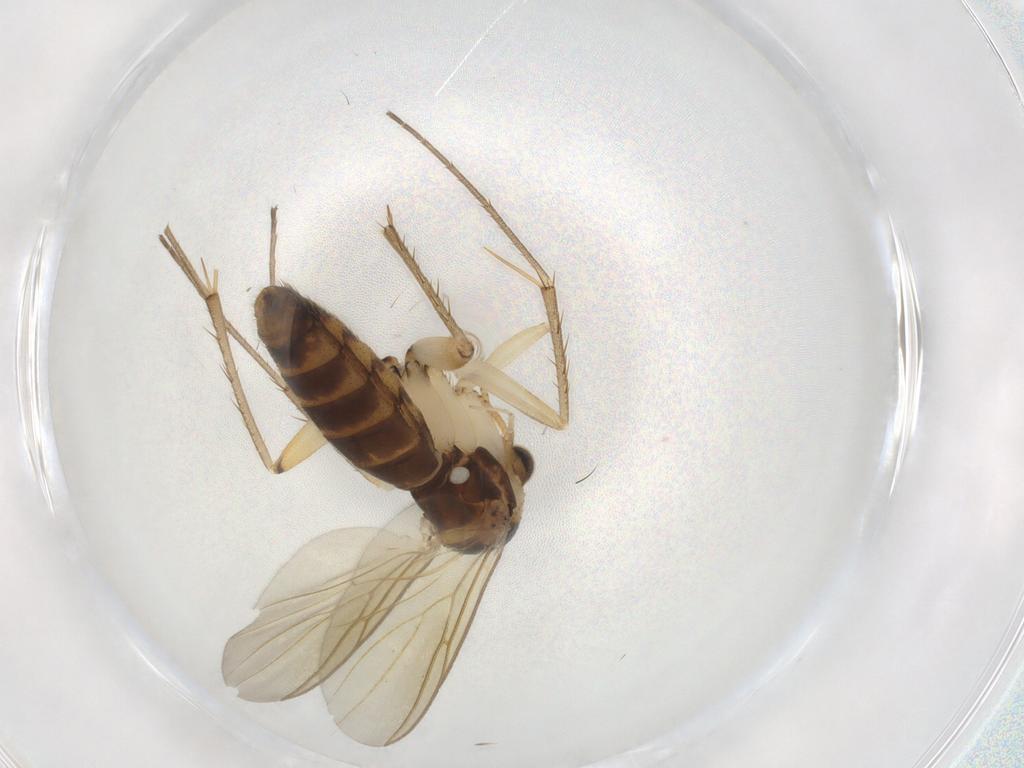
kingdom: Animalia
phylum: Arthropoda
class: Insecta
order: Diptera
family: Mycetophilidae
